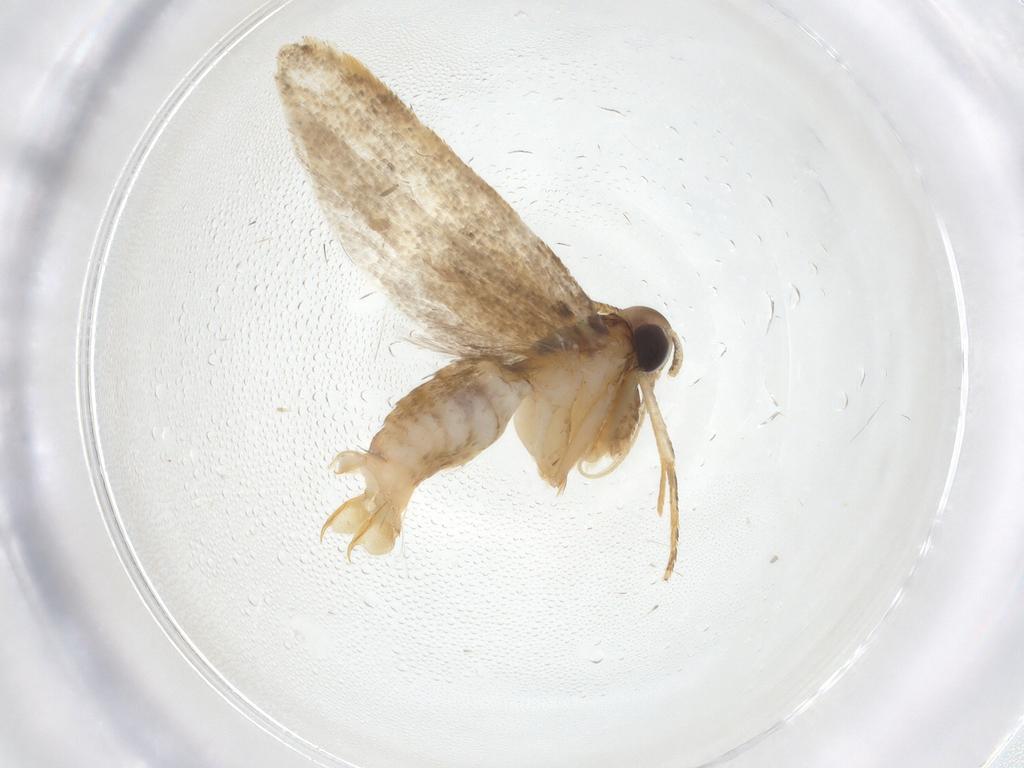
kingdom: Animalia
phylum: Arthropoda
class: Insecta
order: Lepidoptera
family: Oecophoridae
